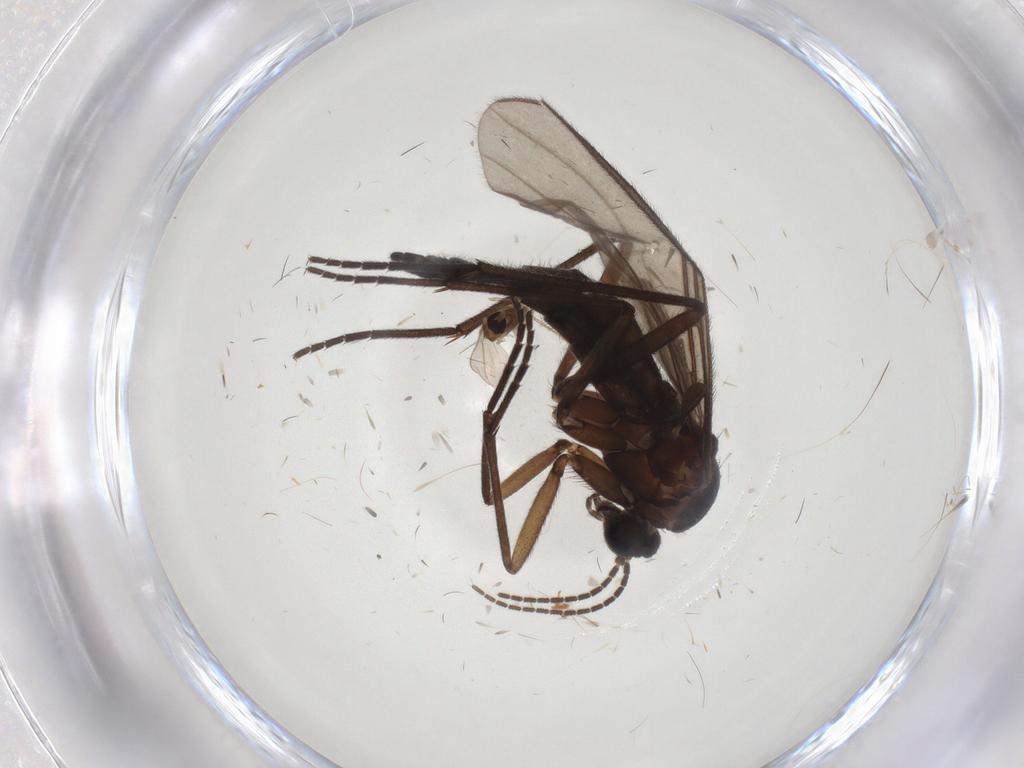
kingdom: Animalia
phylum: Arthropoda
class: Insecta
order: Diptera
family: Sciaridae
